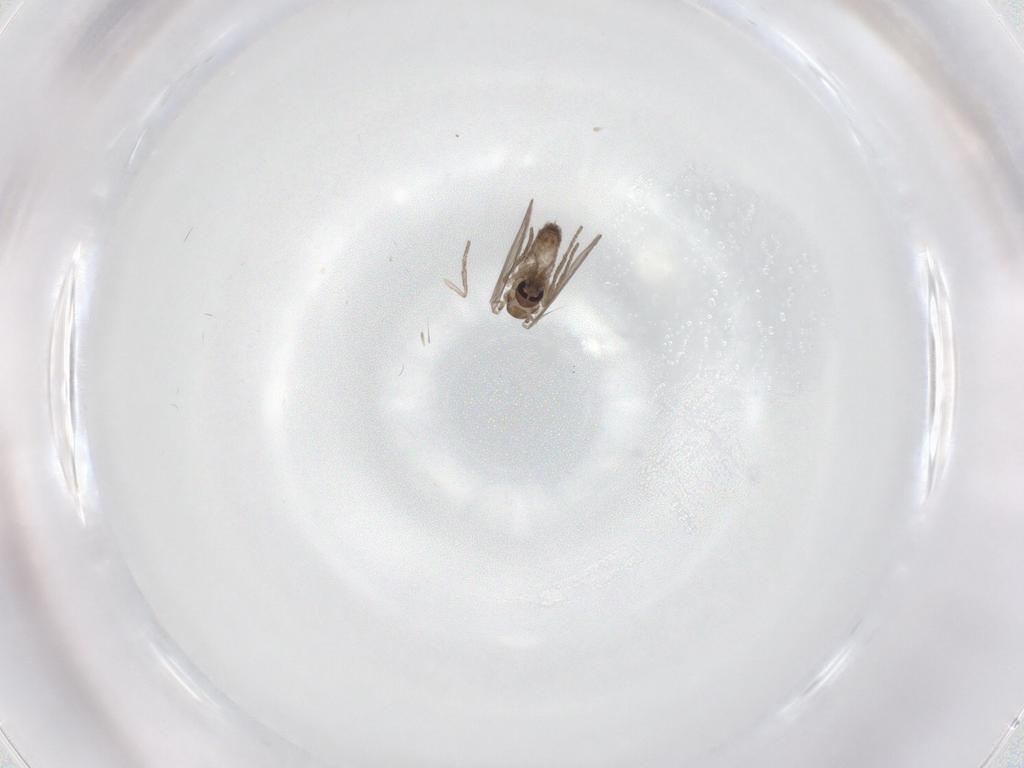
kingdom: Animalia
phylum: Arthropoda
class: Insecta
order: Diptera
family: Psychodidae
